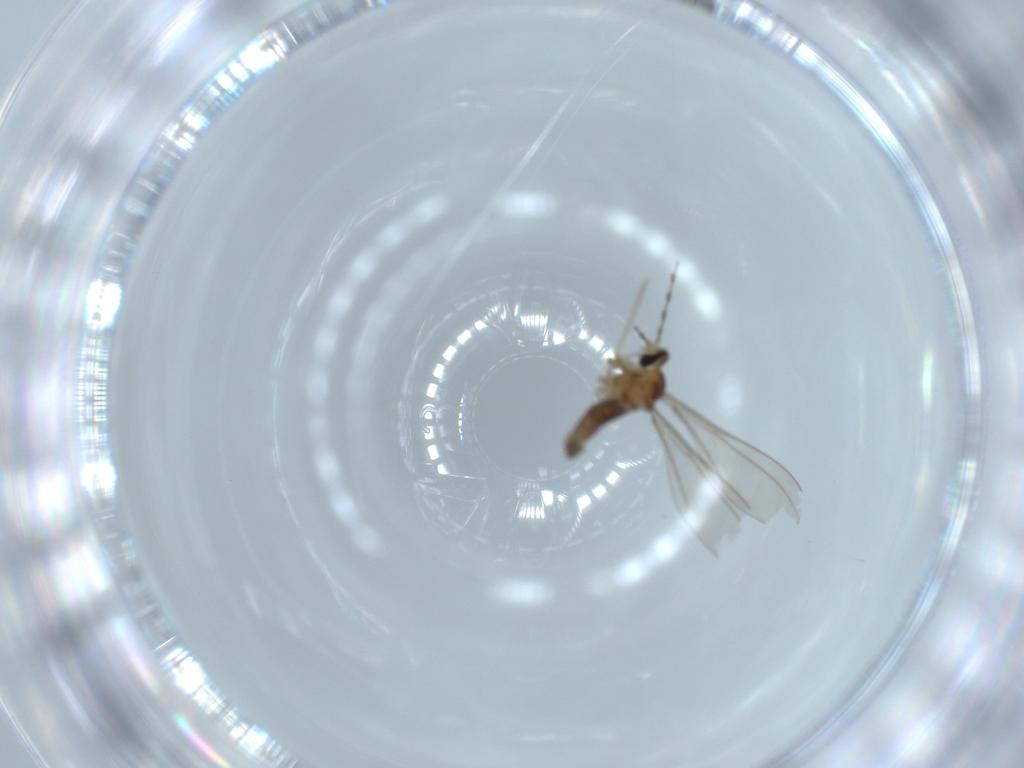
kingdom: Animalia
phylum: Arthropoda
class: Insecta
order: Diptera
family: Cecidomyiidae
